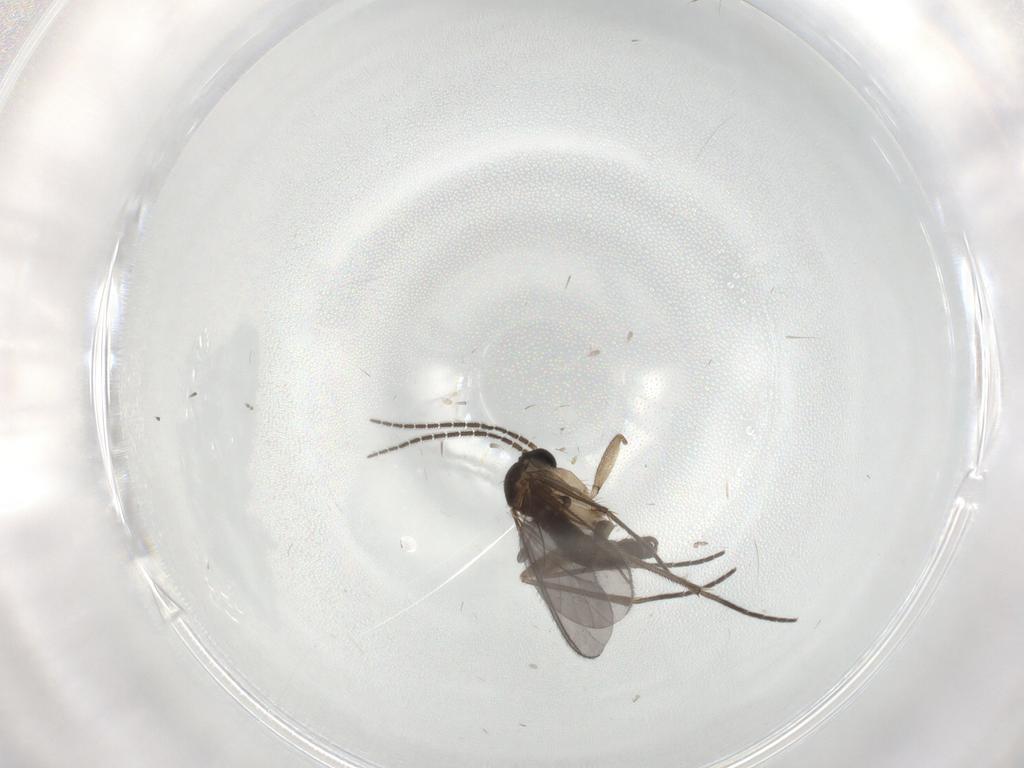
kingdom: Animalia
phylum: Arthropoda
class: Insecta
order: Diptera
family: Sciaridae
